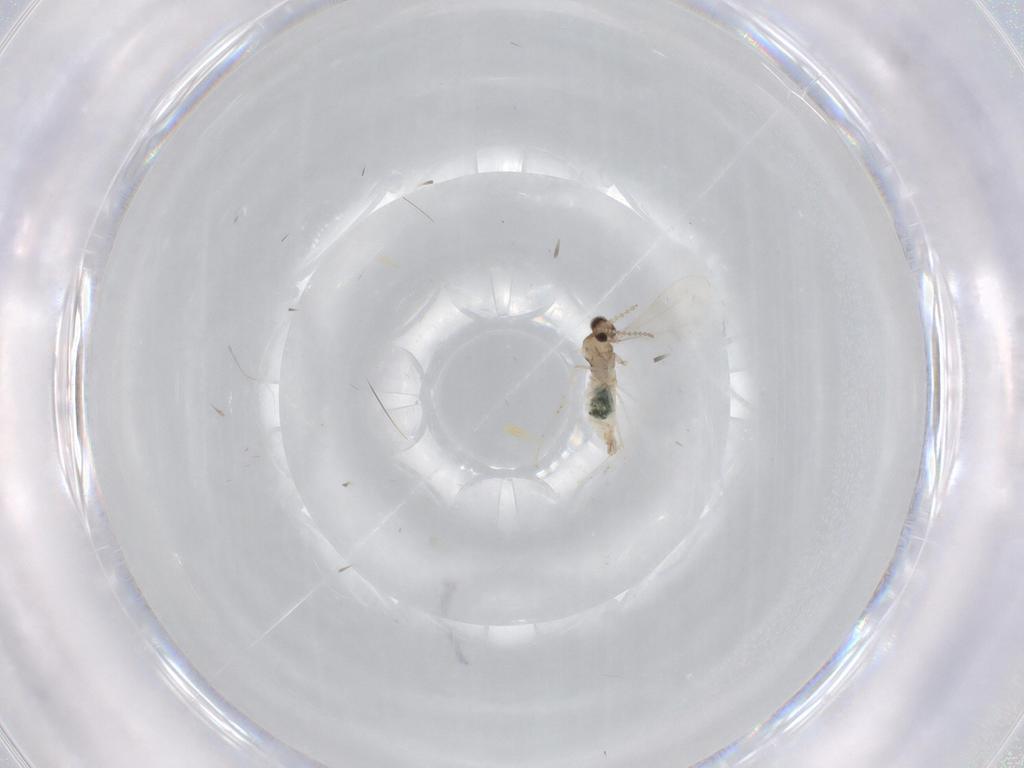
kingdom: Animalia
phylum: Arthropoda
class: Insecta
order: Diptera
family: Cecidomyiidae
